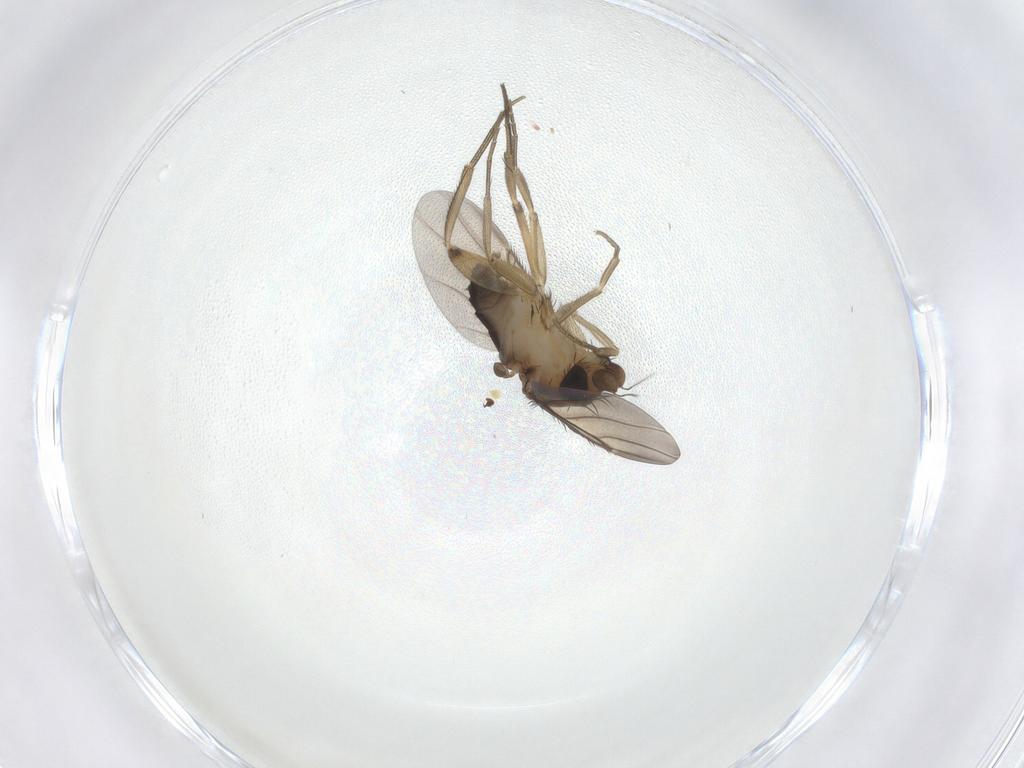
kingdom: Animalia
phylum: Arthropoda
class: Insecta
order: Diptera
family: Phoridae
